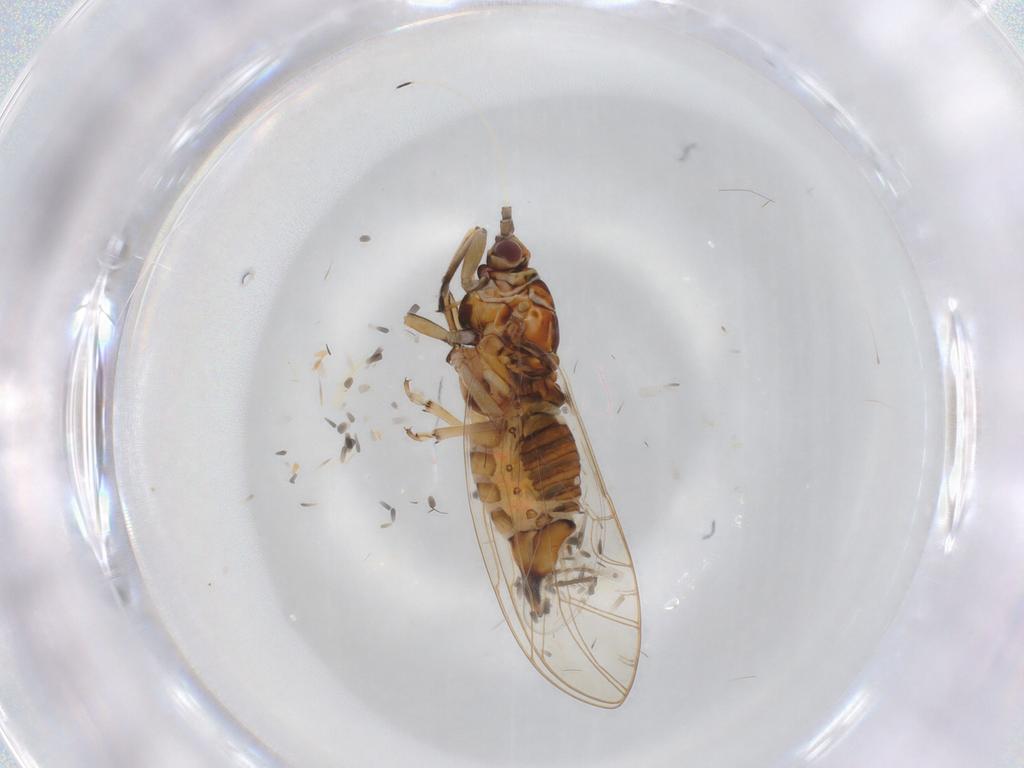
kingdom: Animalia
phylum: Arthropoda
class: Insecta
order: Hemiptera
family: Psylloidea_incertae_sedis
